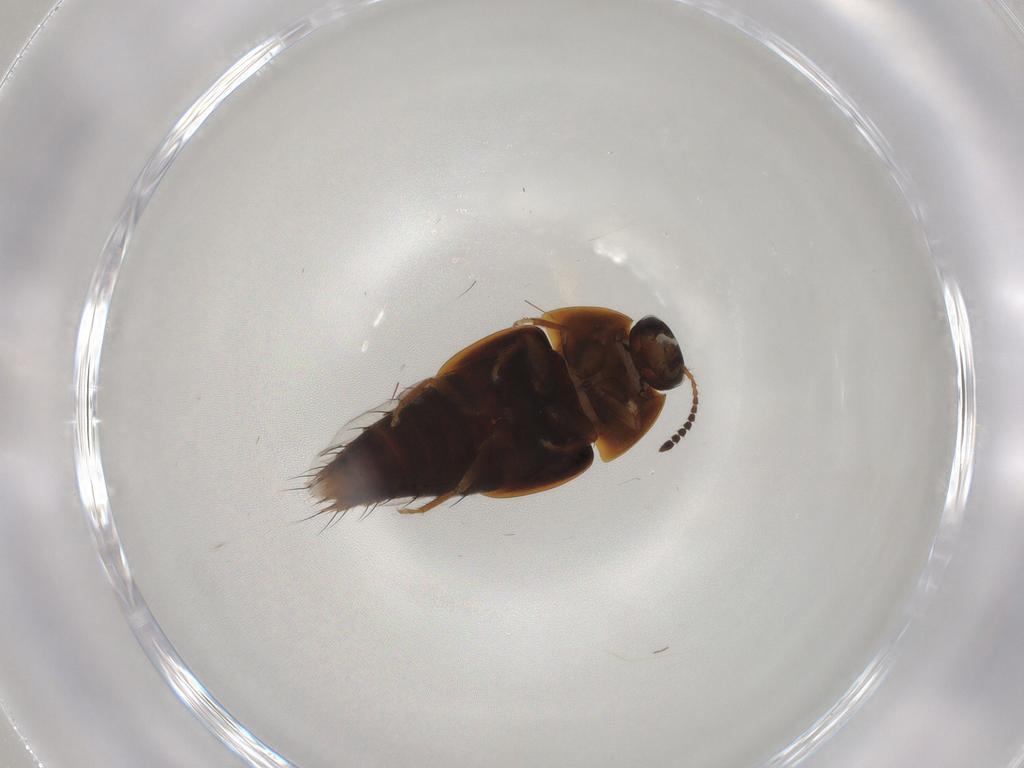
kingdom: Animalia
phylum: Arthropoda
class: Insecta
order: Coleoptera
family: Staphylinidae
